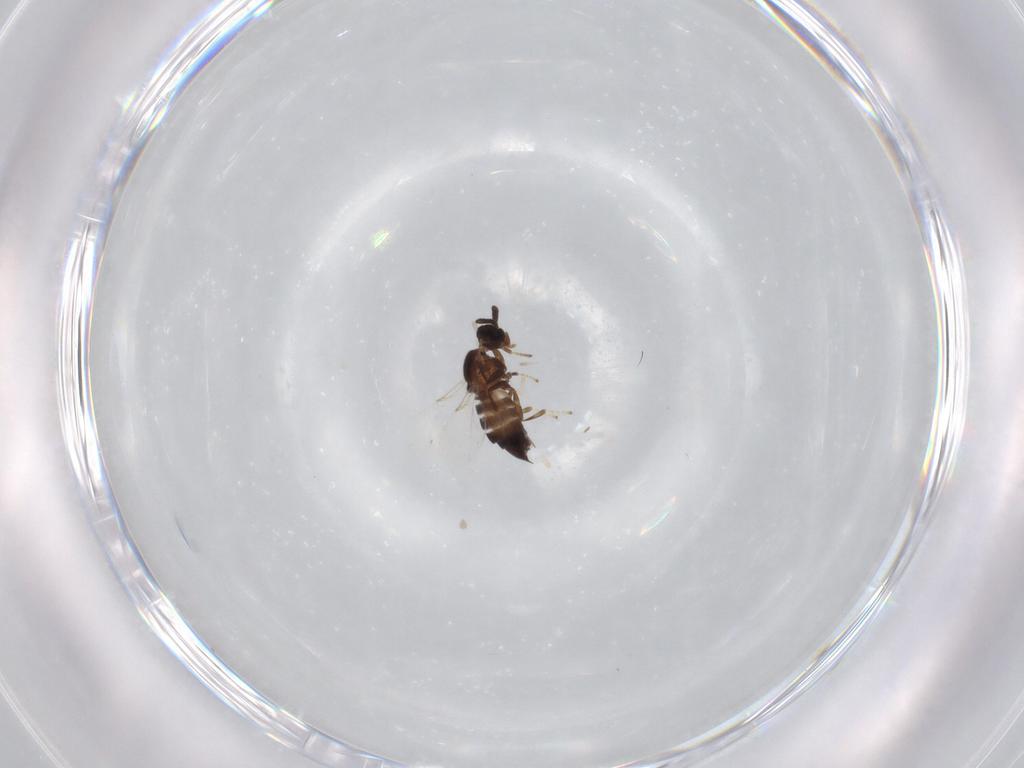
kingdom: Animalia
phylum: Arthropoda
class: Insecta
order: Diptera
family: Scatopsidae
